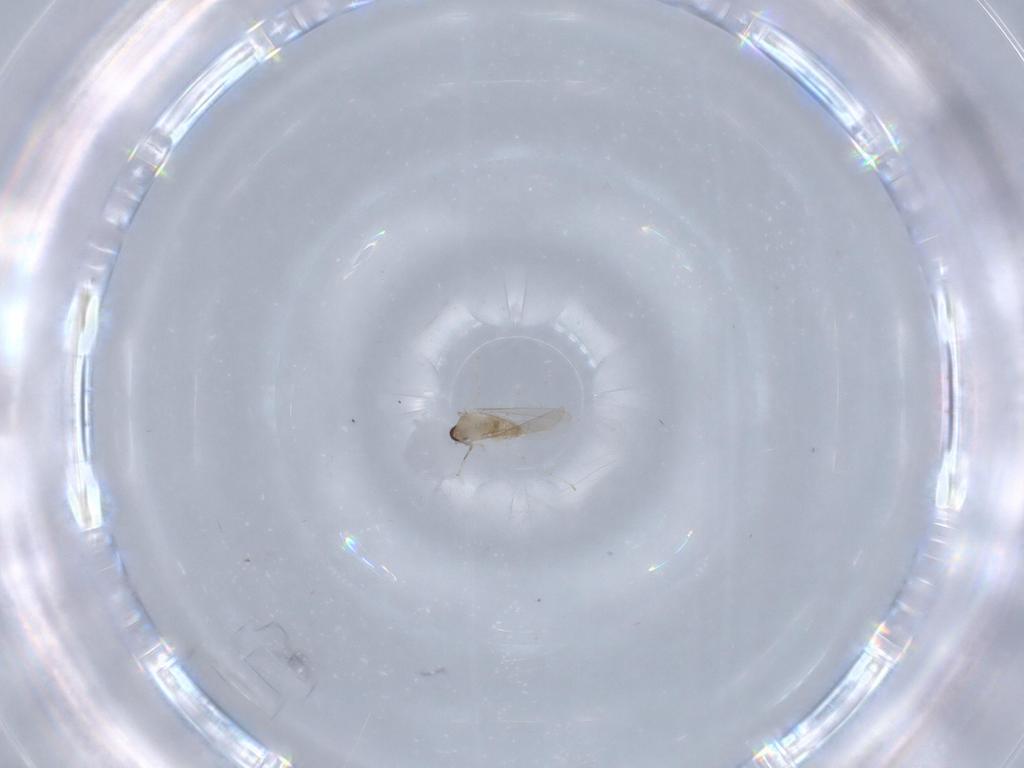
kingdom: Animalia
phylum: Arthropoda
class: Insecta
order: Diptera
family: Cecidomyiidae
